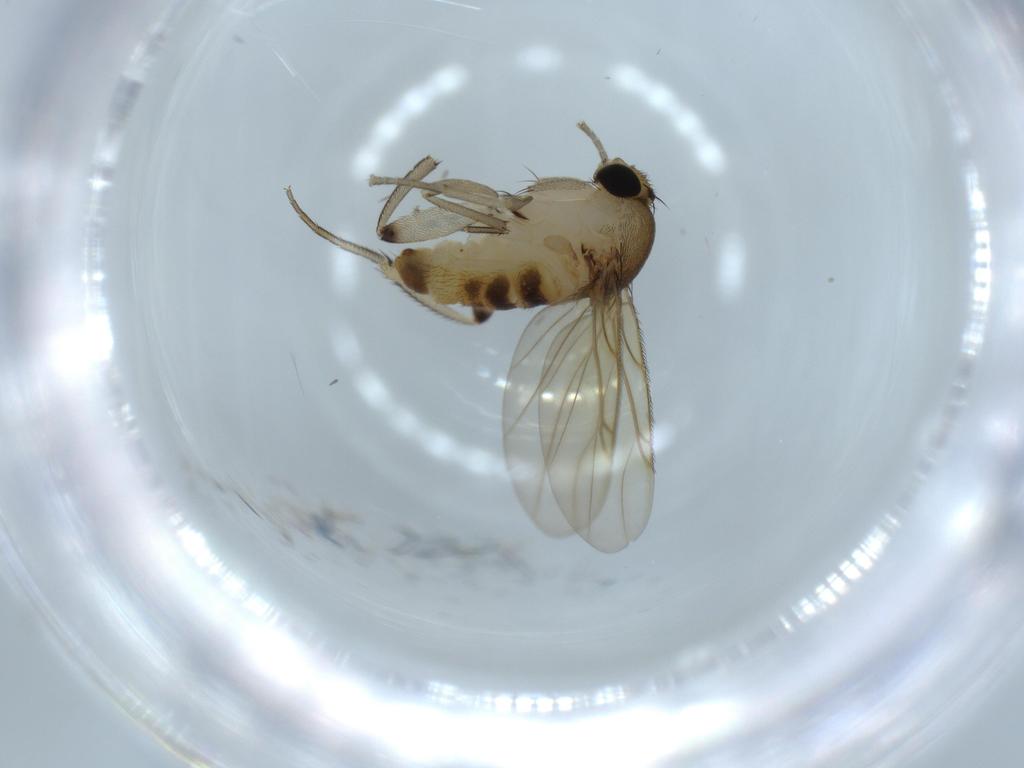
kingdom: Animalia
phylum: Arthropoda
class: Insecta
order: Diptera
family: Phoridae
